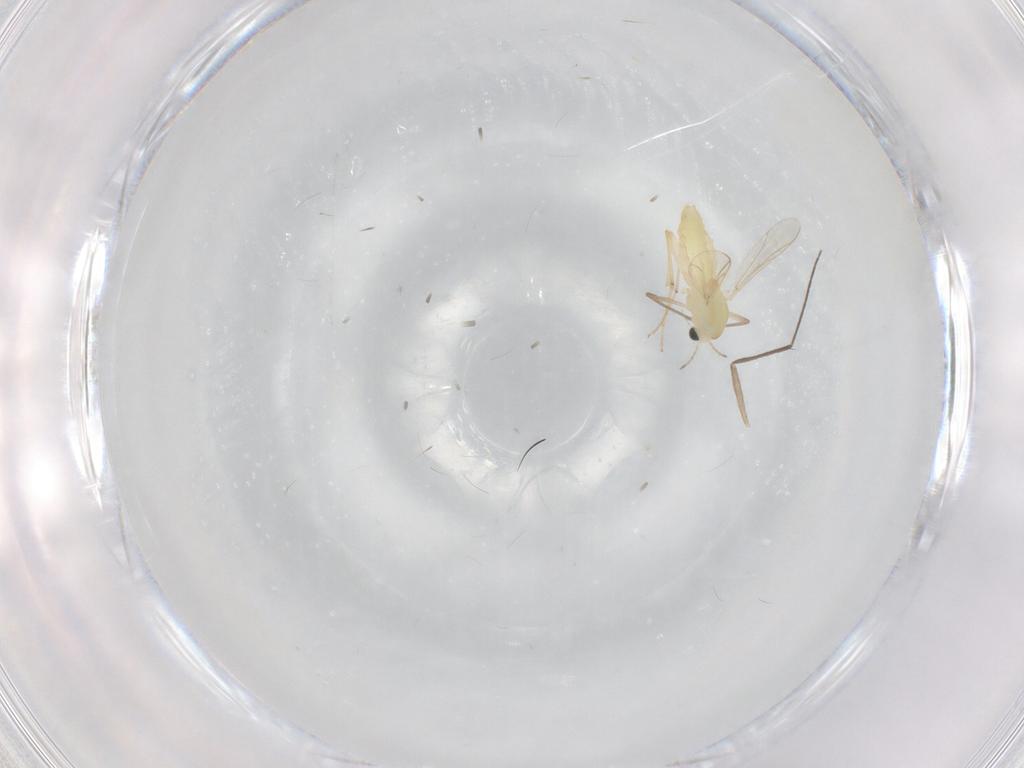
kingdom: Animalia
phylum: Arthropoda
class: Insecta
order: Diptera
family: Chironomidae
